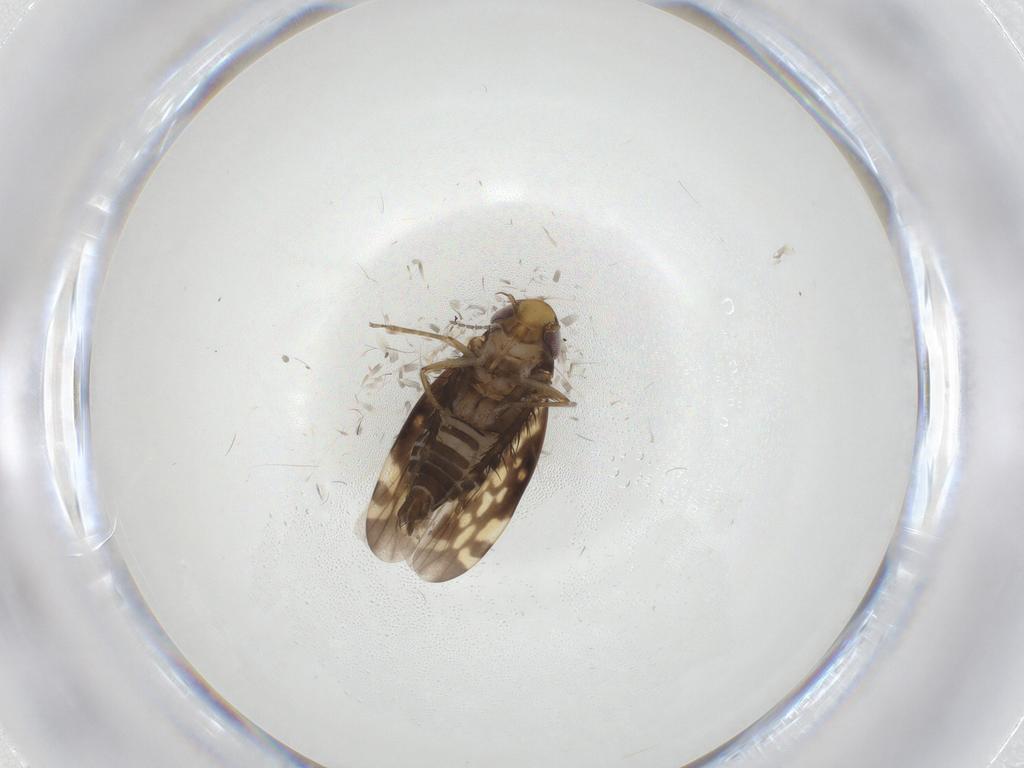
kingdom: Animalia
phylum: Arthropoda
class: Insecta
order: Hemiptera
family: Cicadellidae
